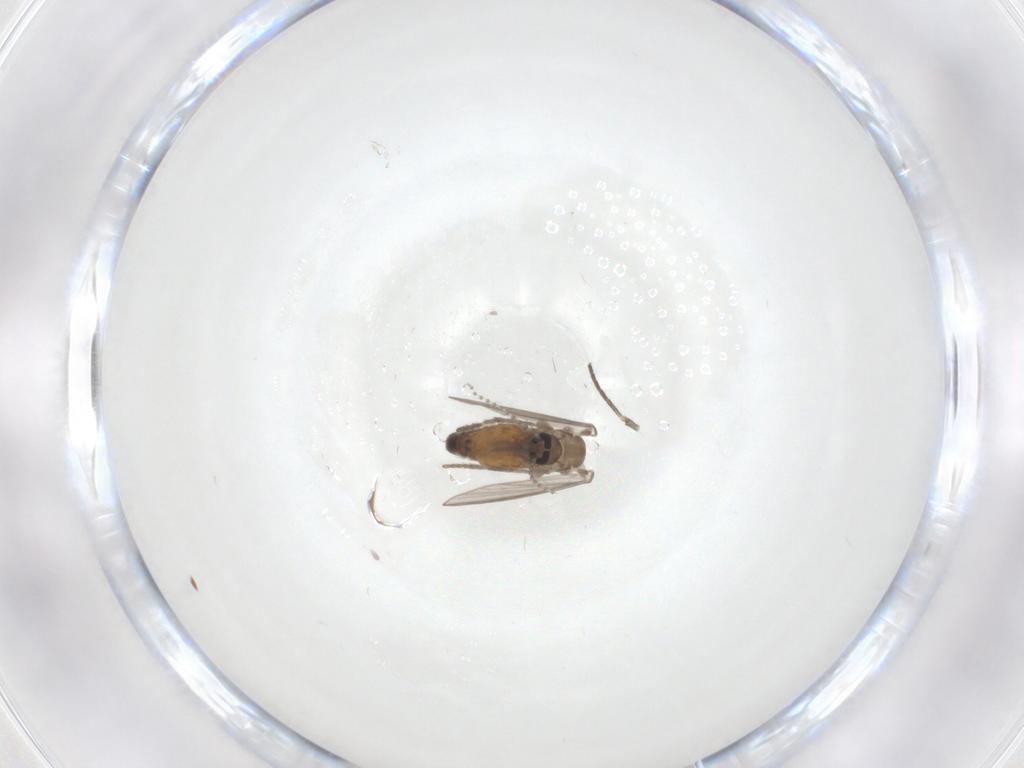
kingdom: Animalia
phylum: Arthropoda
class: Insecta
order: Diptera
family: Psychodidae
